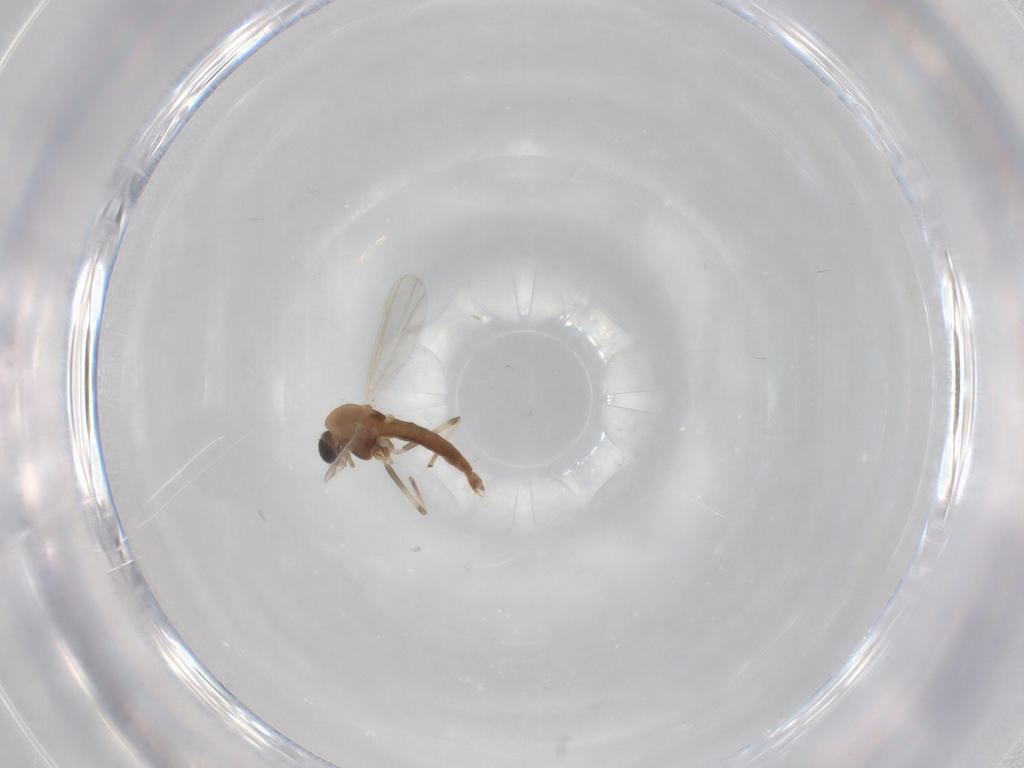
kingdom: Animalia
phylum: Arthropoda
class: Insecta
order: Diptera
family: Chironomidae
